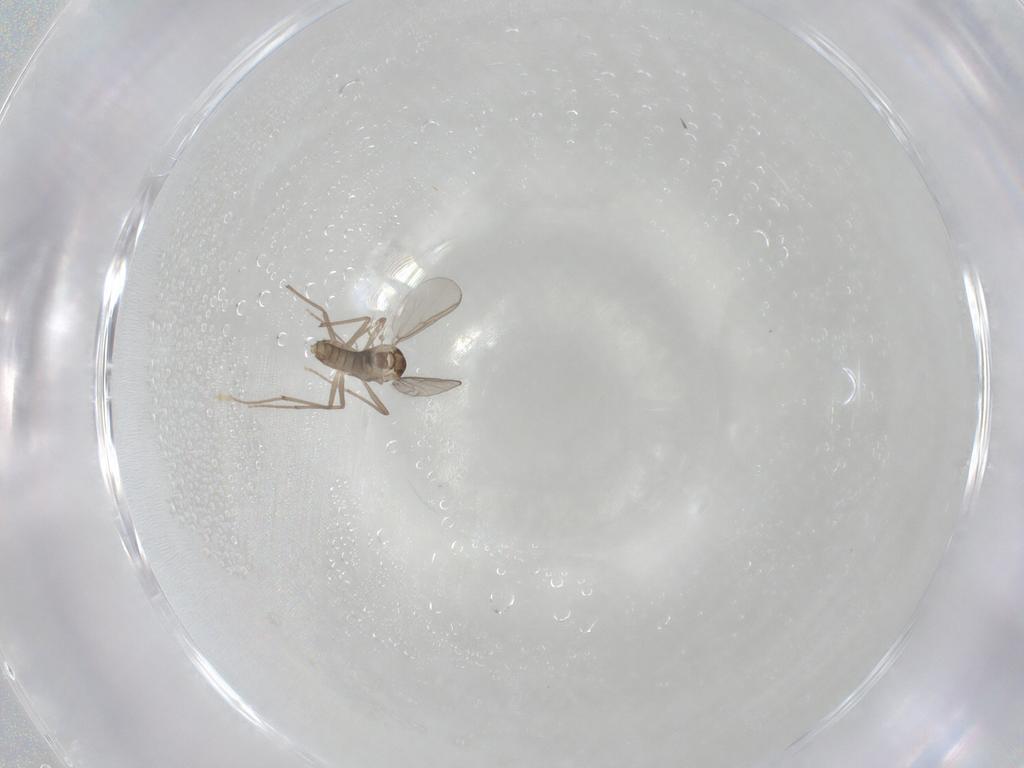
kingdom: Animalia
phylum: Arthropoda
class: Insecta
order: Diptera
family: Chironomidae
